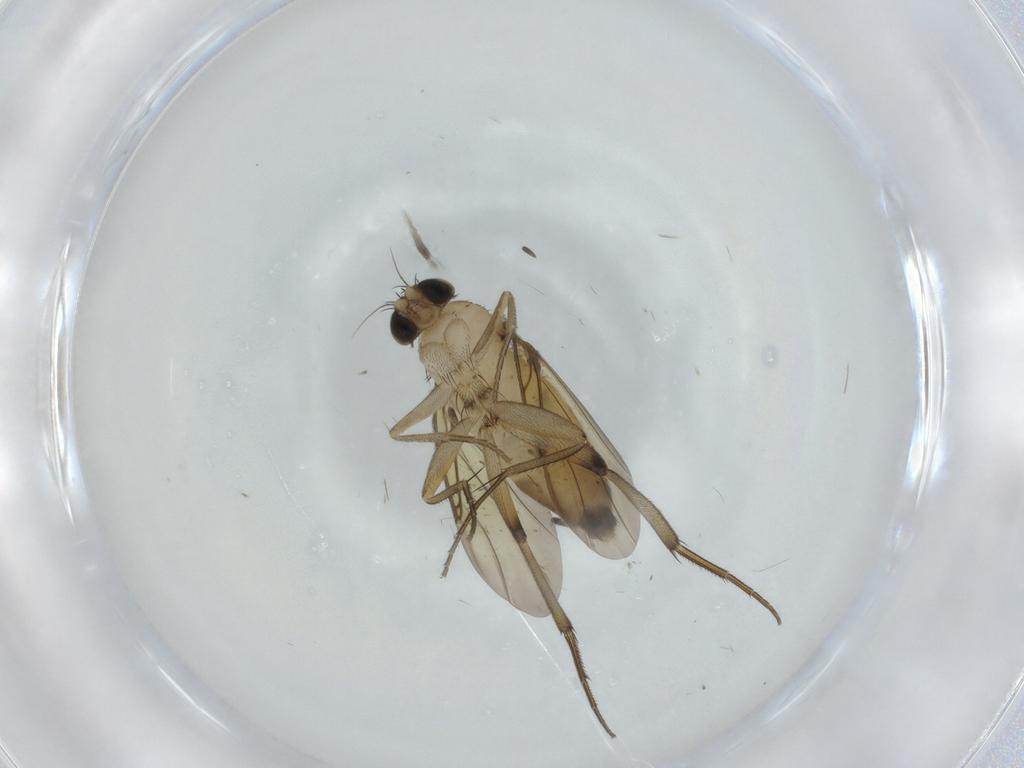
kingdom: Animalia
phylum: Arthropoda
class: Insecta
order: Diptera
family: Phoridae
